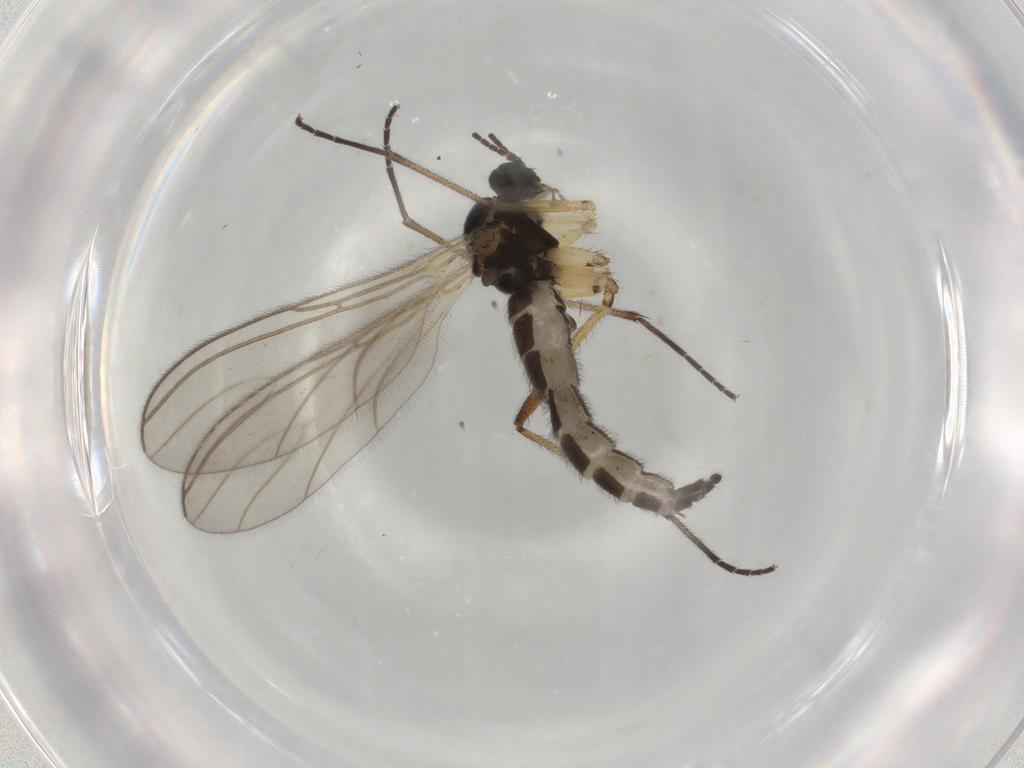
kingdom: Animalia
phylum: Arthropoda
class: Insecta
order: Diptera
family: Sciaridae
